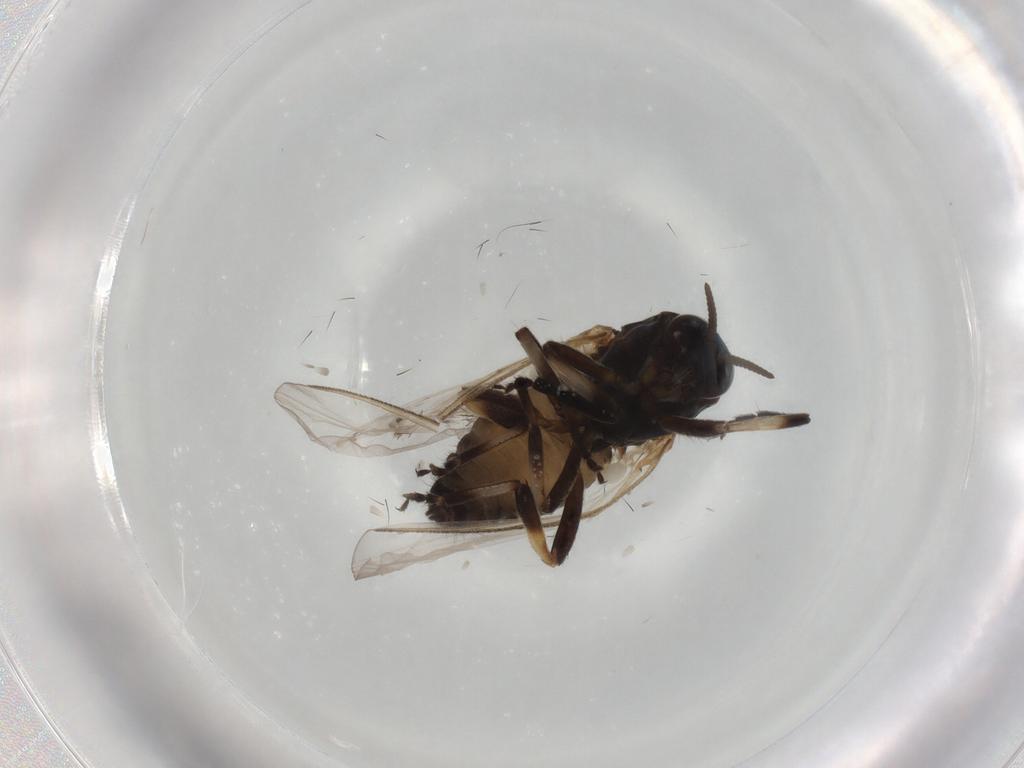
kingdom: Animalia
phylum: Arthropoda
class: Insecta
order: Diptera
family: Simuliidae
